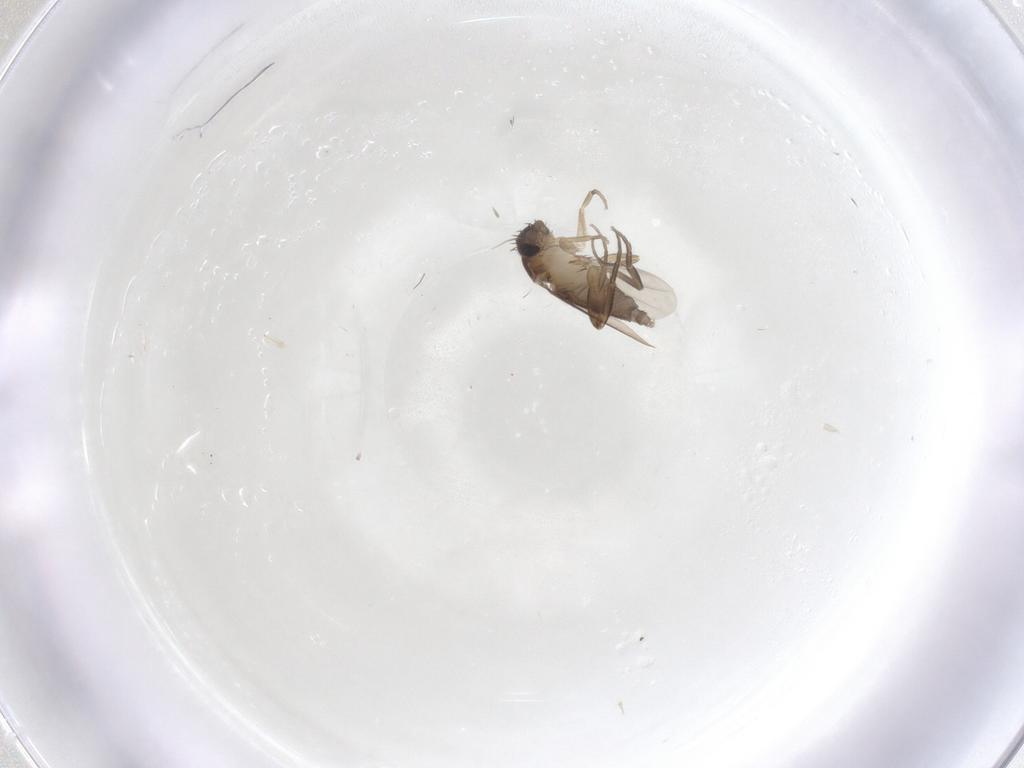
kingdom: Animalia
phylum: Arthropoda
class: Insecta
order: Diptera
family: Phoridae
